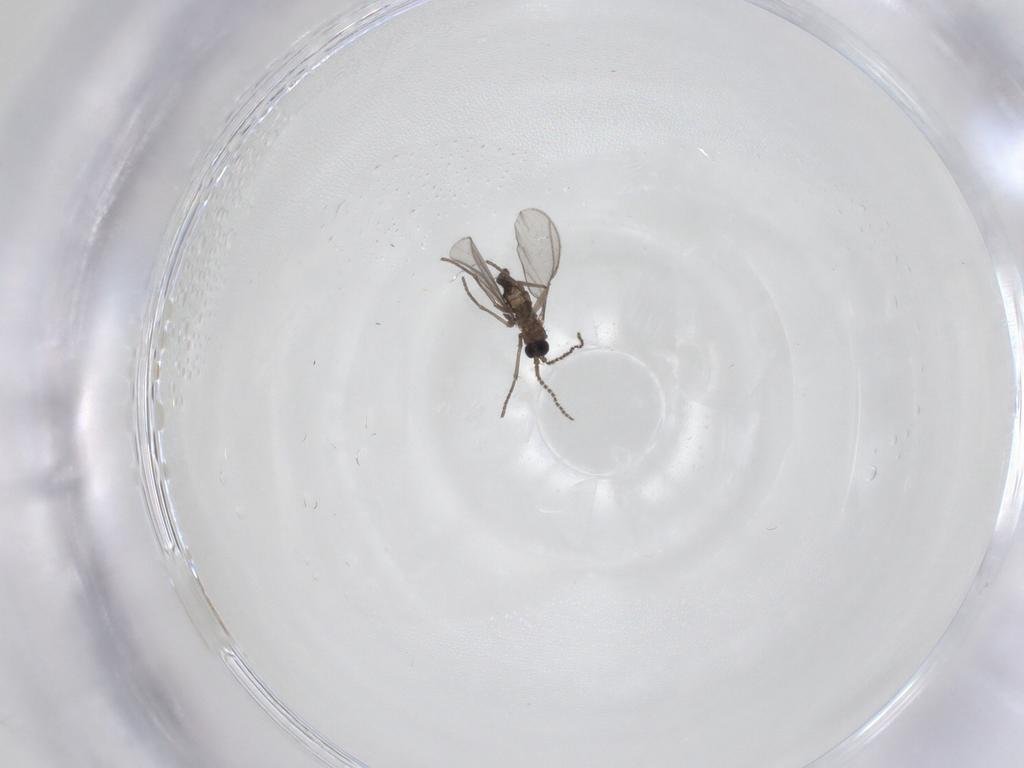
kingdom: Animalia
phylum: Arthropoda
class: Insecta
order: Diptera
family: Sciaridae
